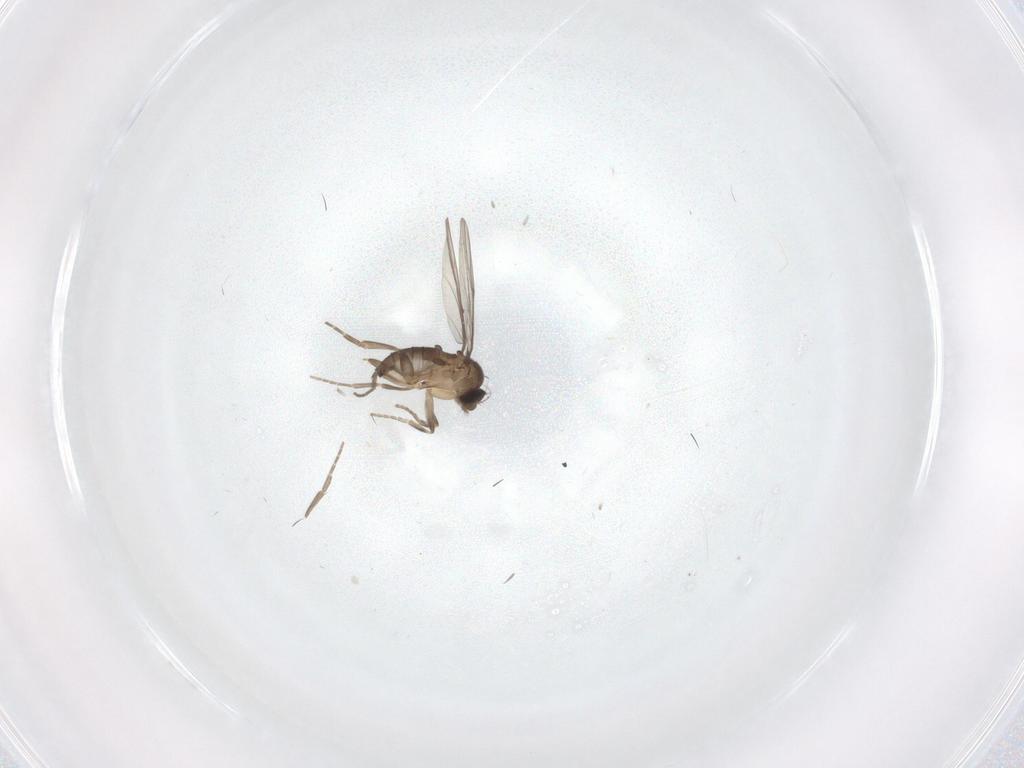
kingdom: Animalia
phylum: Arthropoda
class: Insecta
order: Diptera
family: Phoridae
